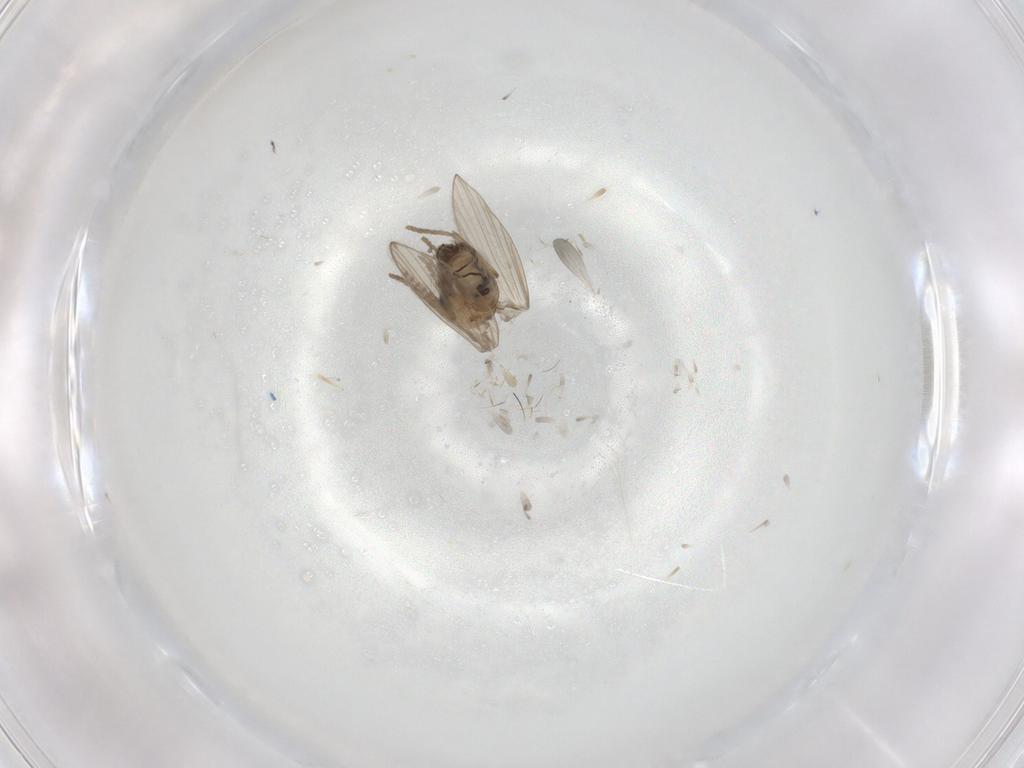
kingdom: Animalia
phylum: Arthropoda
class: Insecta
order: Diptera
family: Psychodidae
